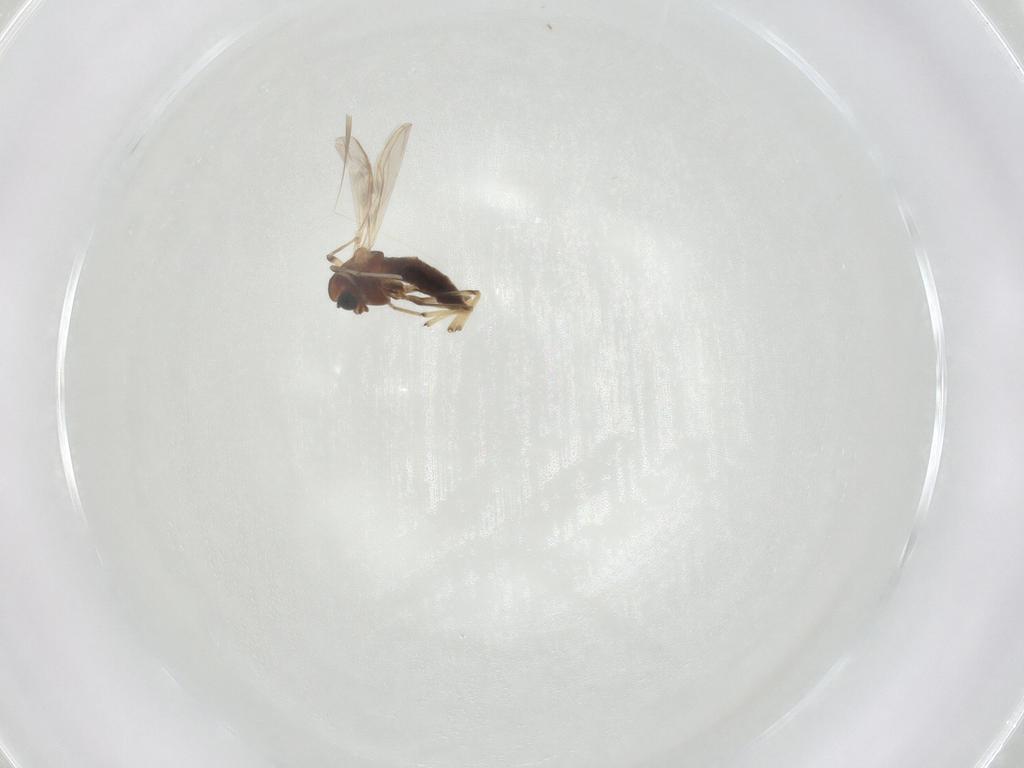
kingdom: Animalia
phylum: Arthropoda
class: Insecta
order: Diptera
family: Chironomidae
